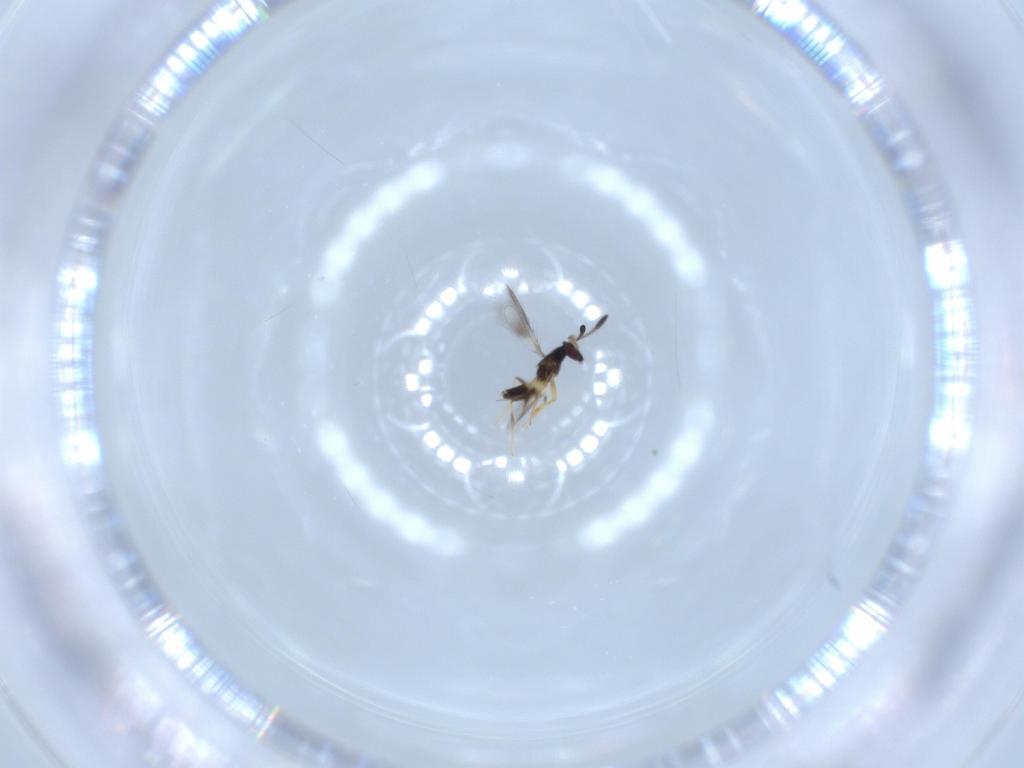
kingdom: Animalia
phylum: Arthropoda
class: Insecta
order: Hymenoptera
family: Mymaridae
